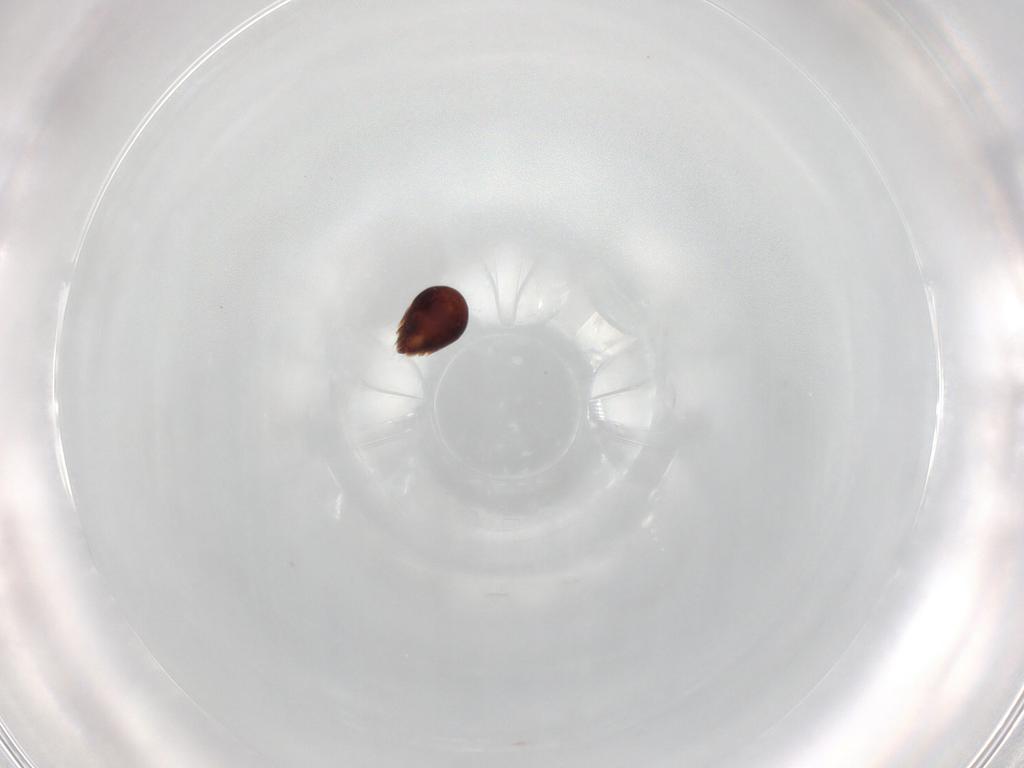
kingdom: Animalia
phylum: Arthropoda
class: Arachnida
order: Sarcoptiformes
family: Humerobatidae
